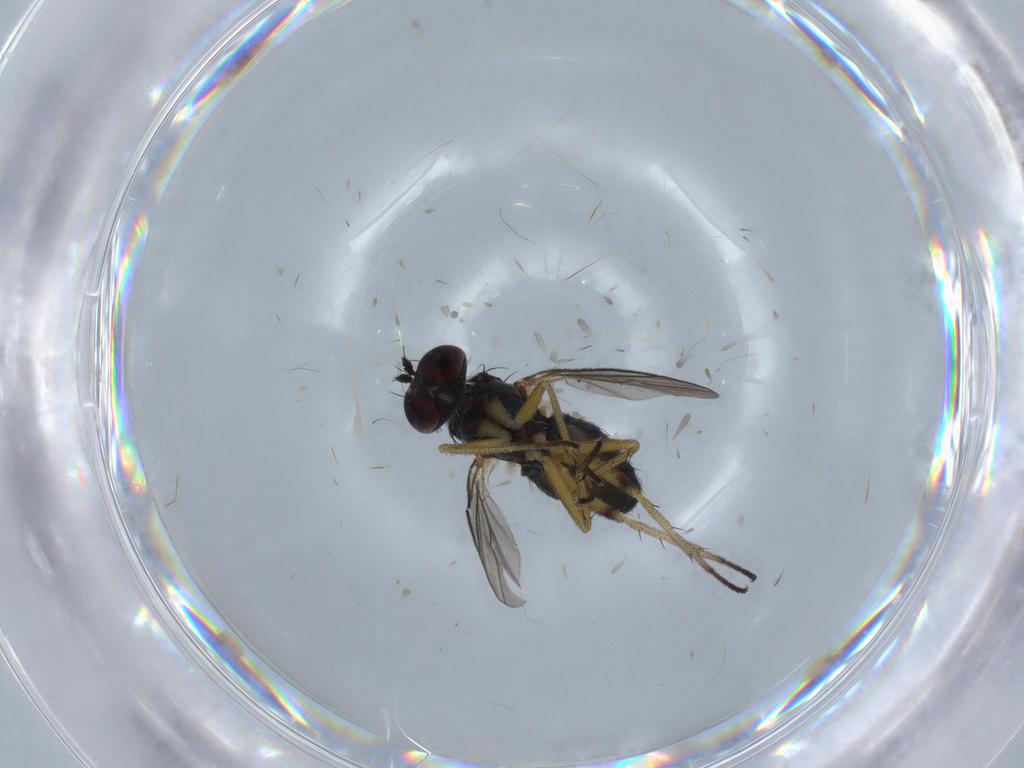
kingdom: Animalia
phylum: Arthropoda
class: Insecta
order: Diptera
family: Dolichopodidae
